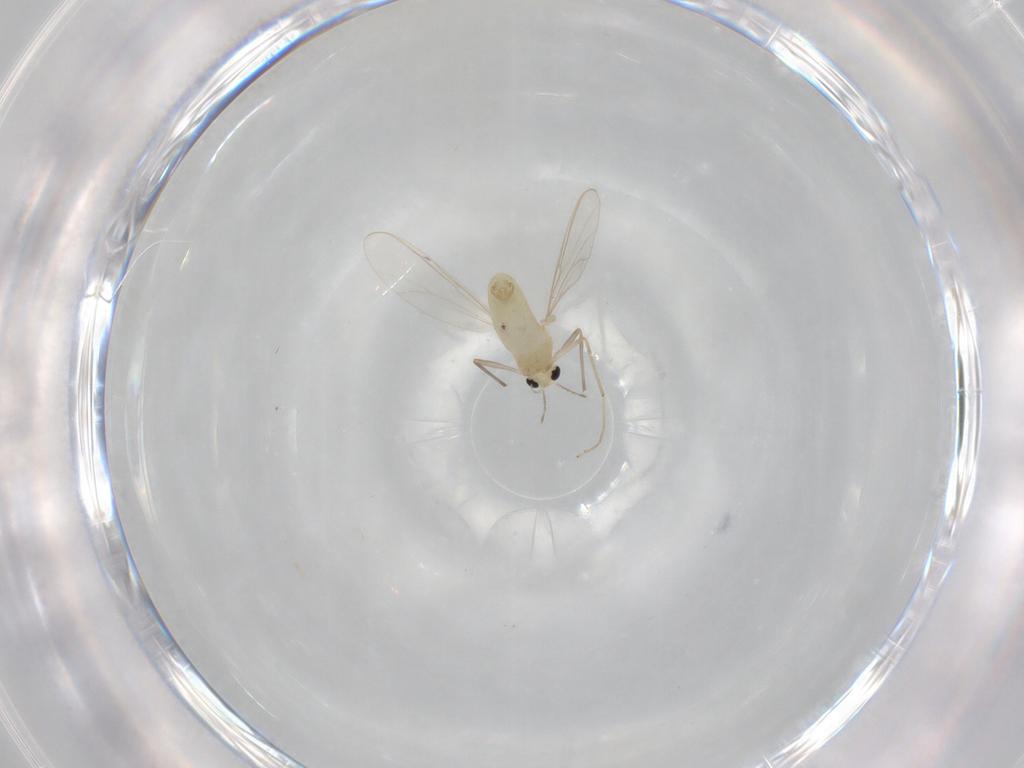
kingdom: Animalia
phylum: Arthropoda
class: Insecta
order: Diptera
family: Chironomidae
